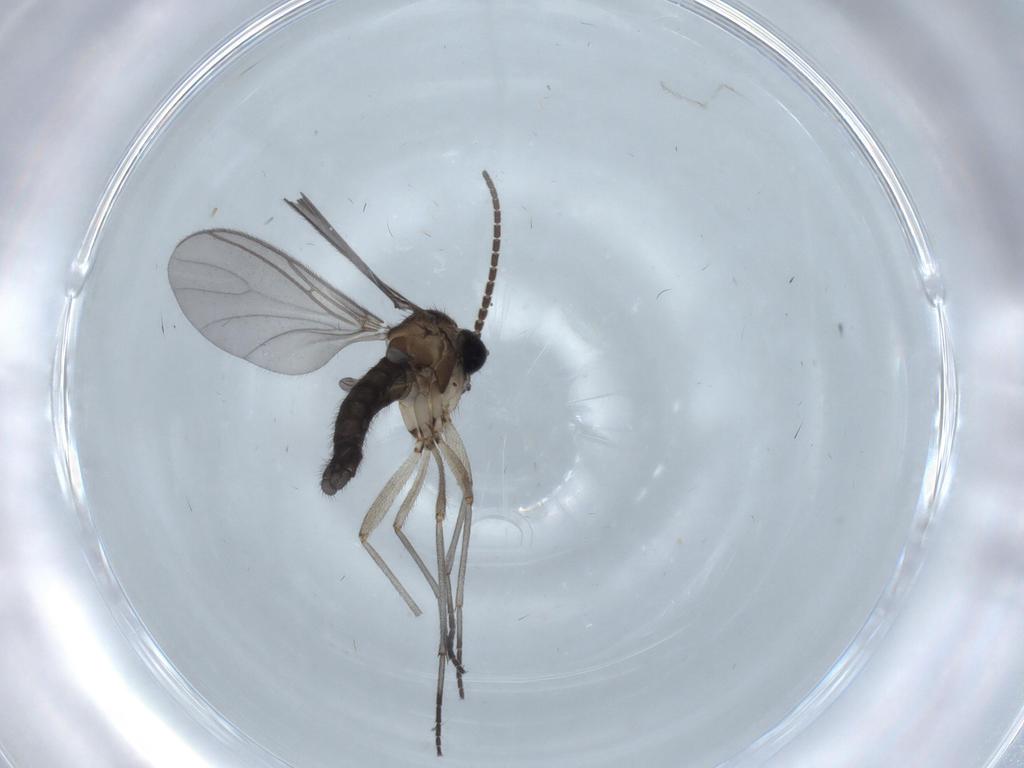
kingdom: Animalia
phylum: Arthropoda
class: Insecta
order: Diptera
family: Sciaridae
